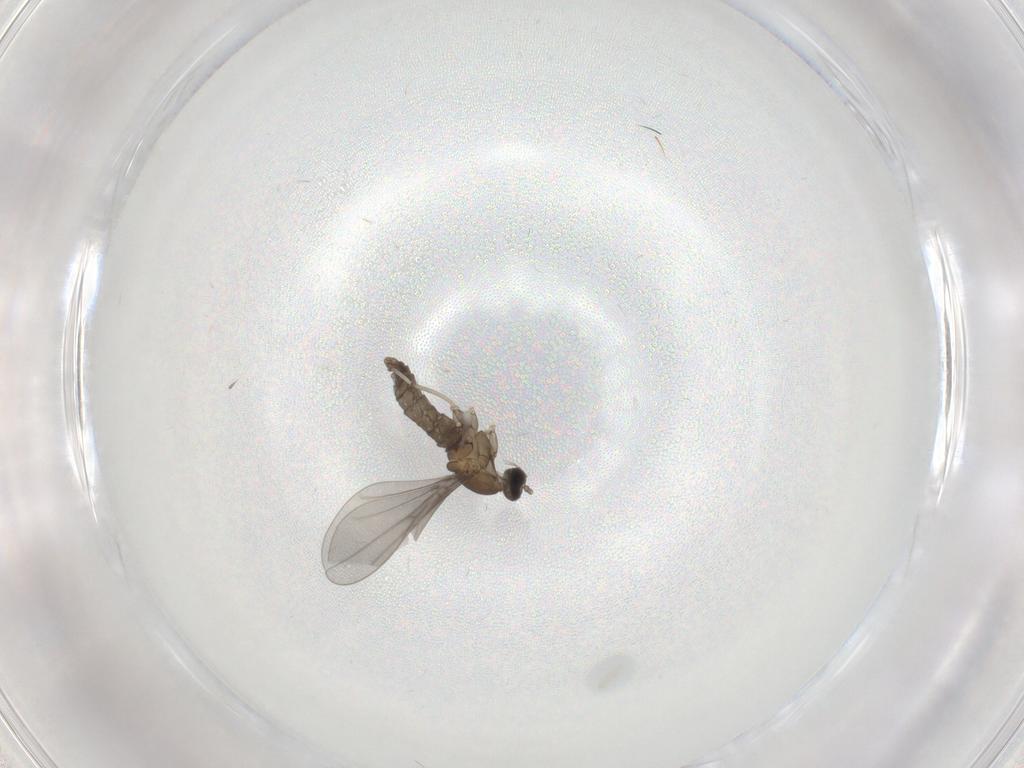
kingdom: Animalia
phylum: Arthropoda
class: Insecta
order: Diptera
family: Cecidomyiidae
